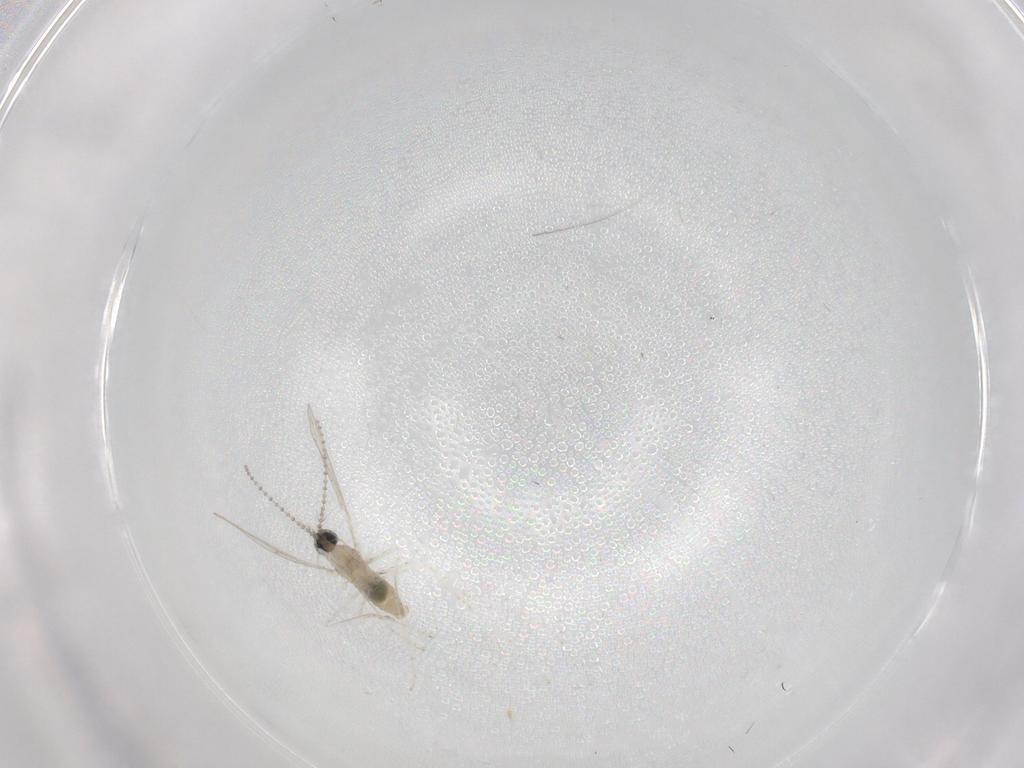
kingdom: Animalia
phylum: Arthropoda
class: Insecta
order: Diptera
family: Cecidomyiidae
